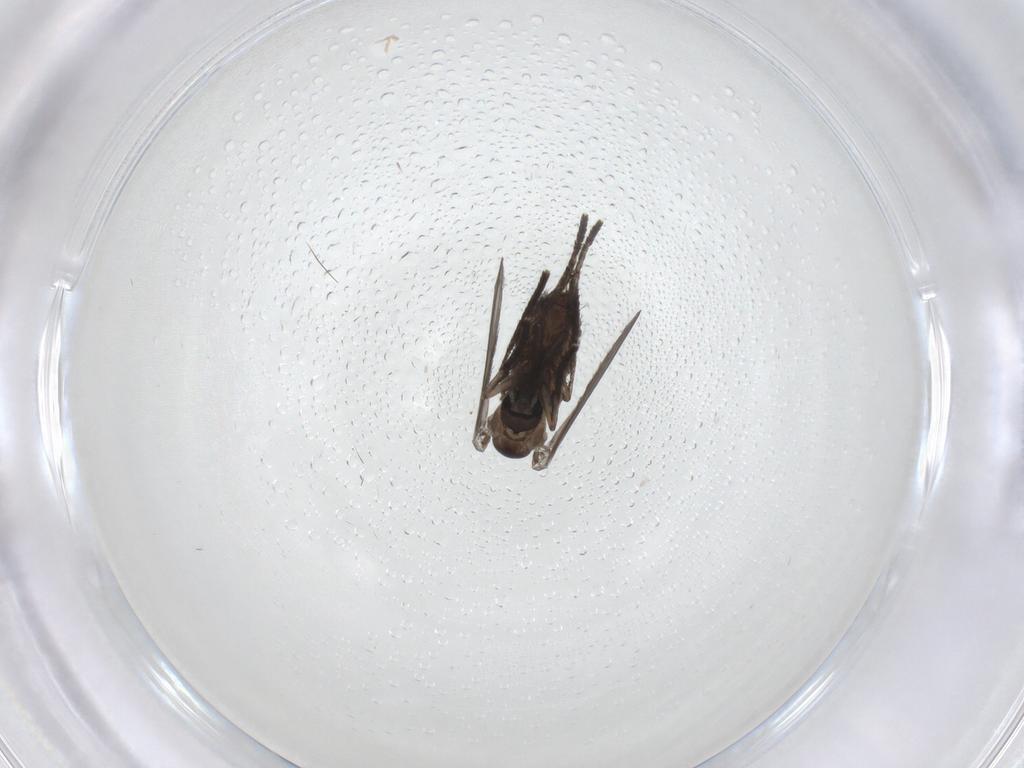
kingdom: Animalia
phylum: Arthropoda
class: Insecta
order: Diptera
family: Psychodidae
